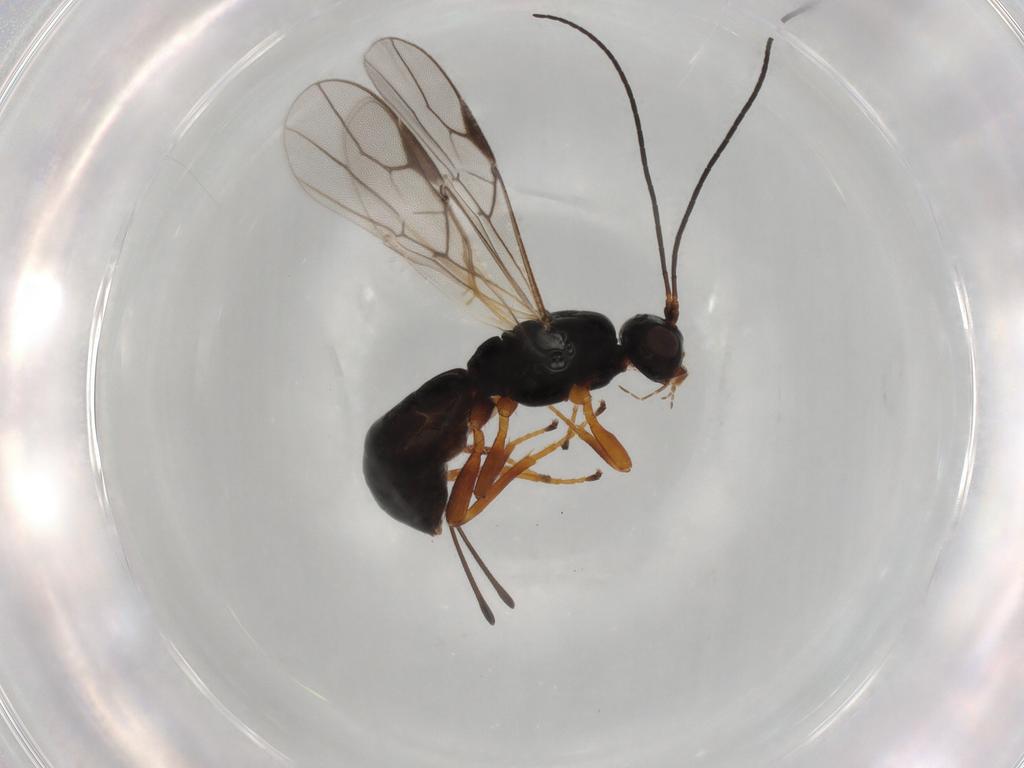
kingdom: Animalia
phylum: Arthropoda
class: Insecta
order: Hymenoptera
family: Braconidae
